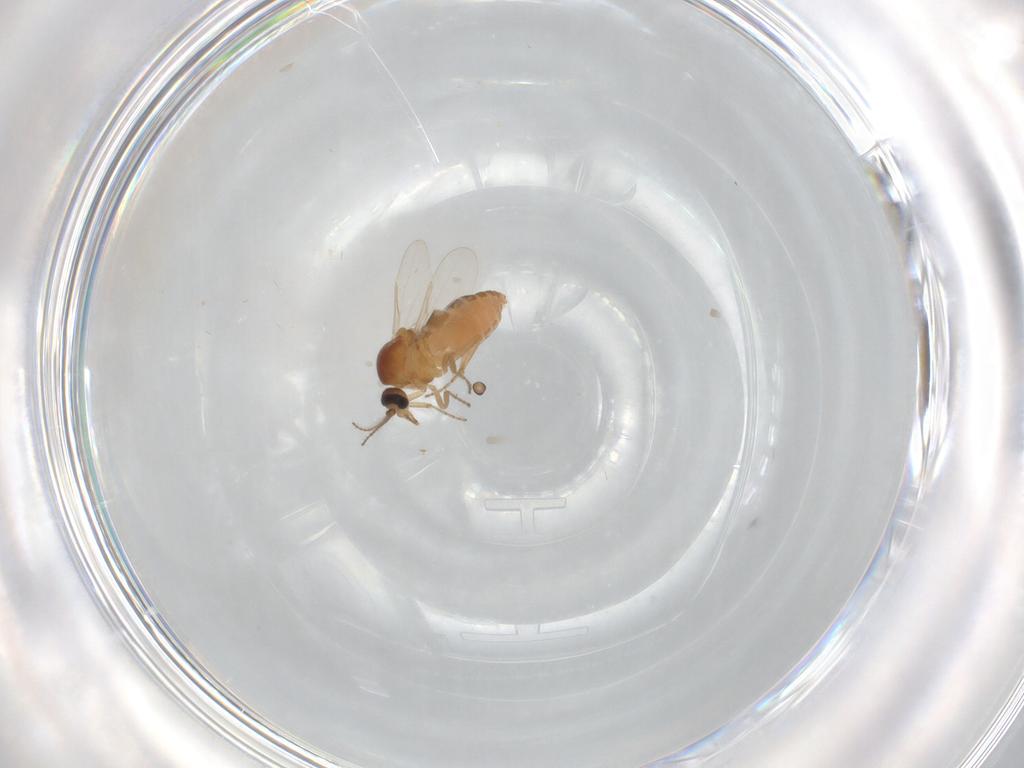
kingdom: Animalia
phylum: Arthropoda
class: Insecta
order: Diptera
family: Ceratopogonidae
